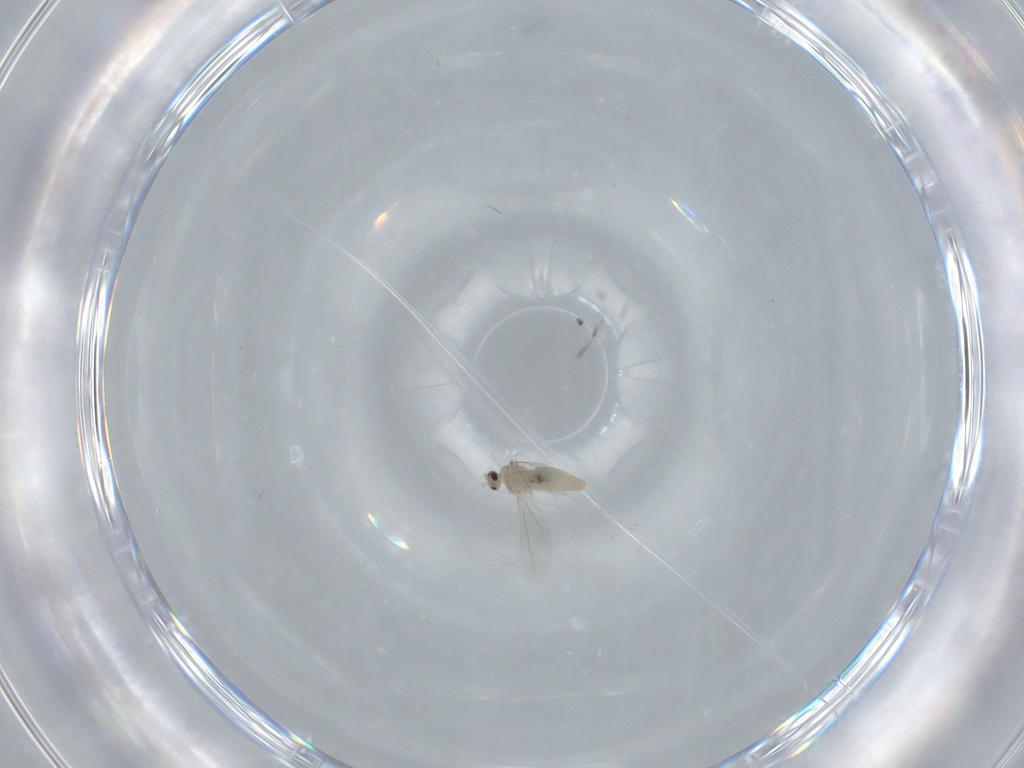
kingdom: Animalia
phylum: Arthropoda
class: Insecta
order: Diptera
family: Cecidomyiidae
